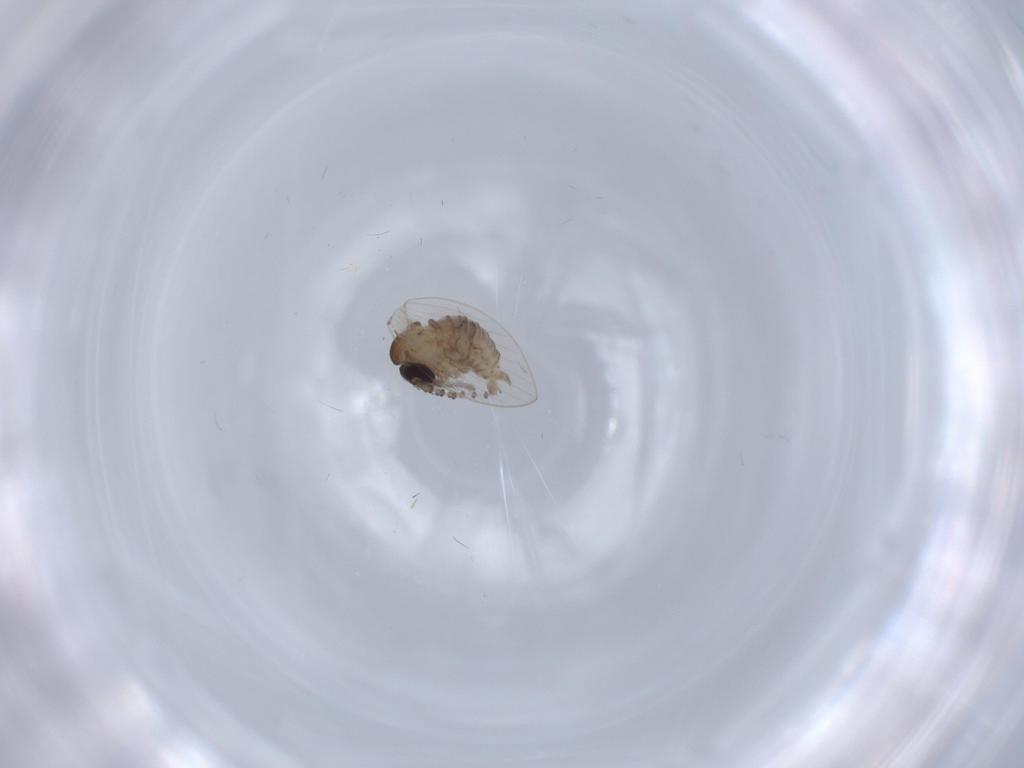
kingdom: Animalia
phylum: Arthropoda
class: Insecta
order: Diptera
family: Psychodidae
